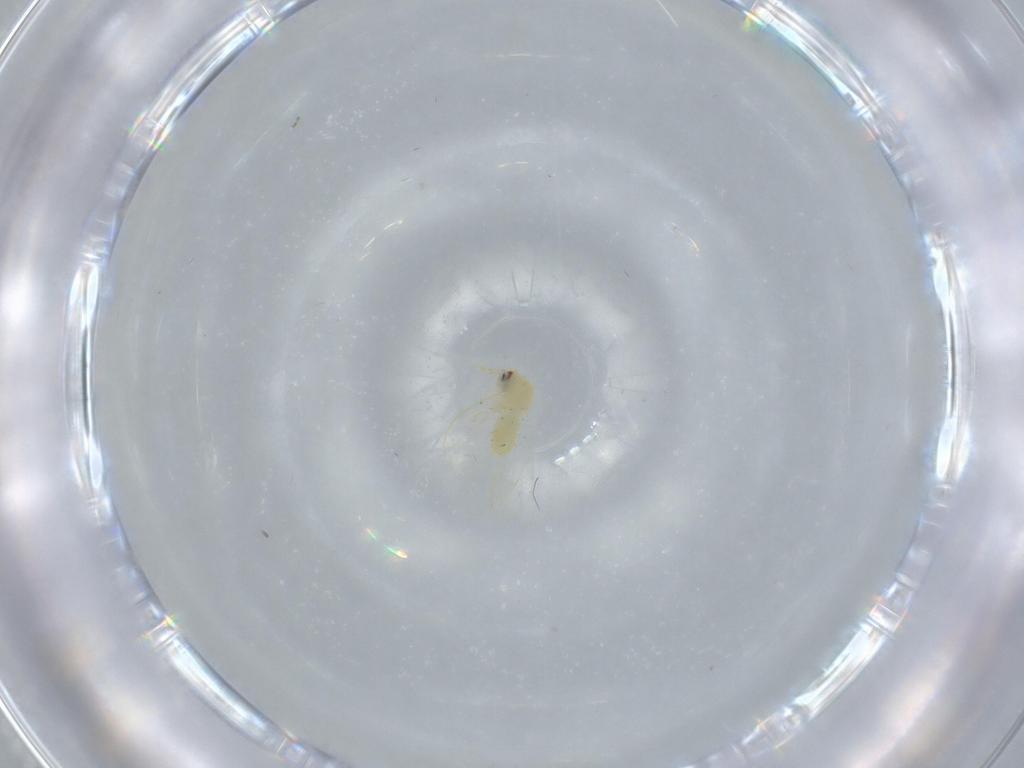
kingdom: Animalia
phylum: Arthropoda
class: Insecta
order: Hemiptera
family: Aleyrodidae
